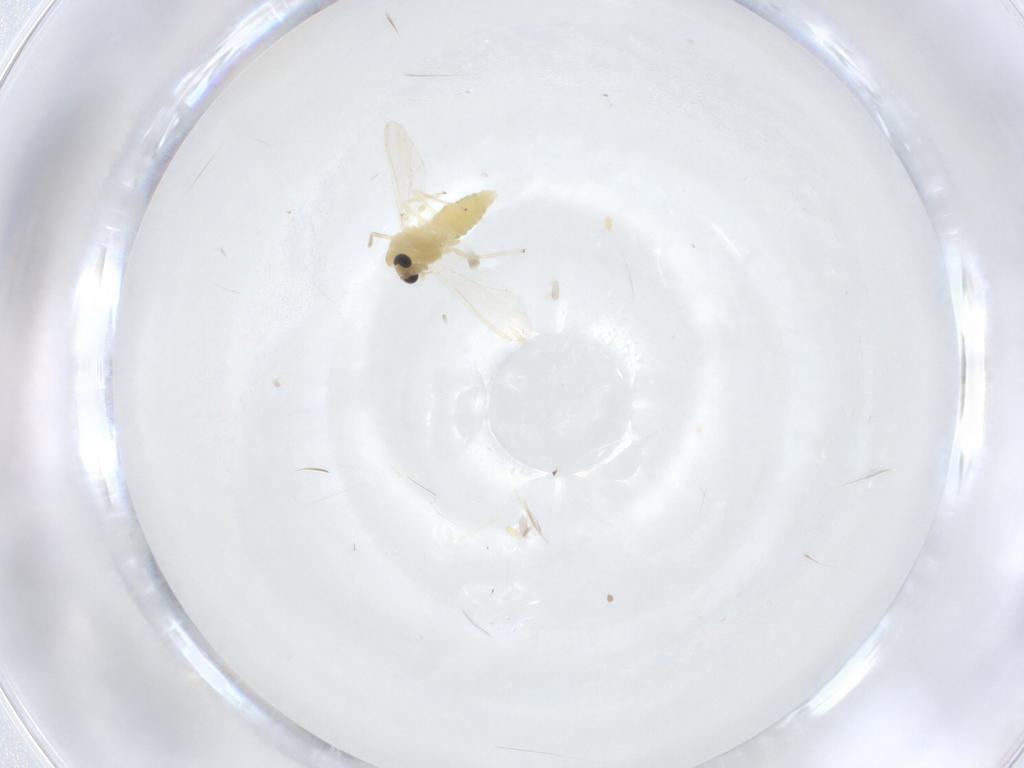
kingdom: Animalia
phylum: Arthropoda
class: Insecta
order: Diptera
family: Chironomidae
